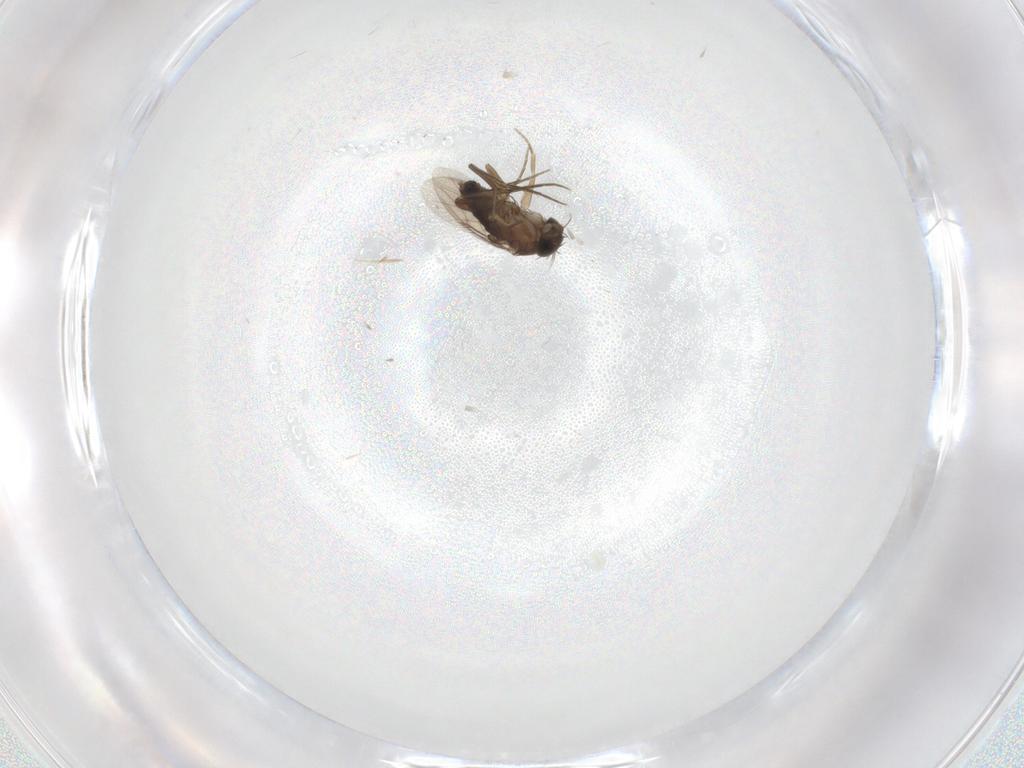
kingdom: Animalia
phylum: Arthropoda
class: Insecta
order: Diptera
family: Phoridae
